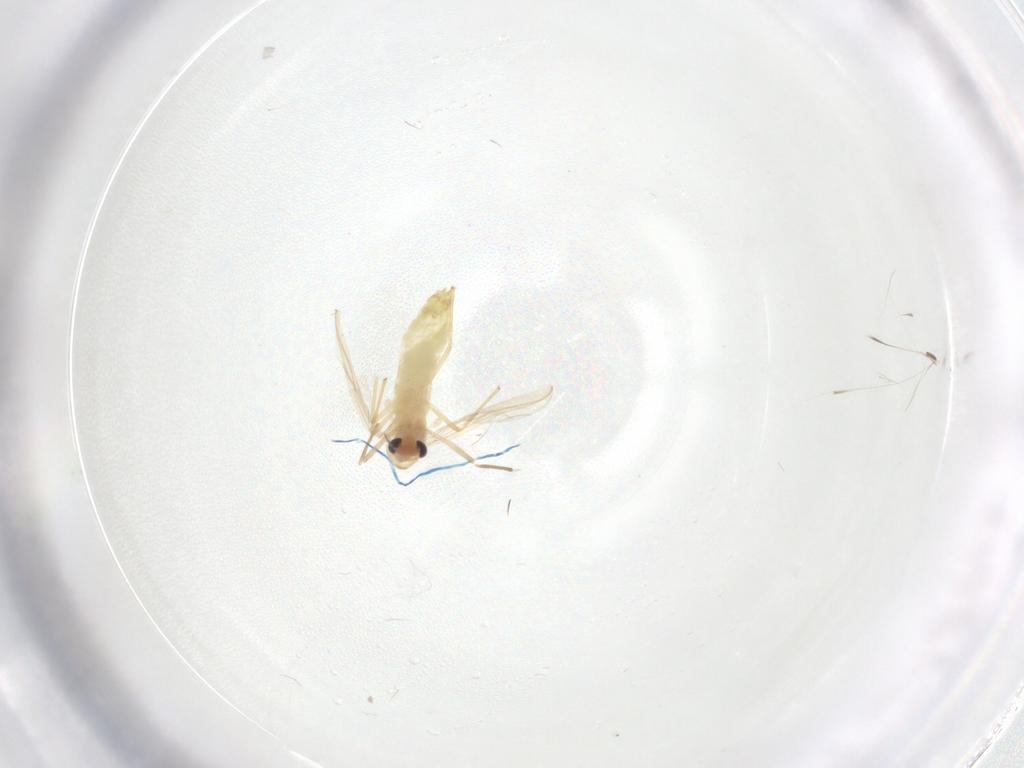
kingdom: Animalia
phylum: Arthropoda
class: Insecta
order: Diptera
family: Chironomidae
